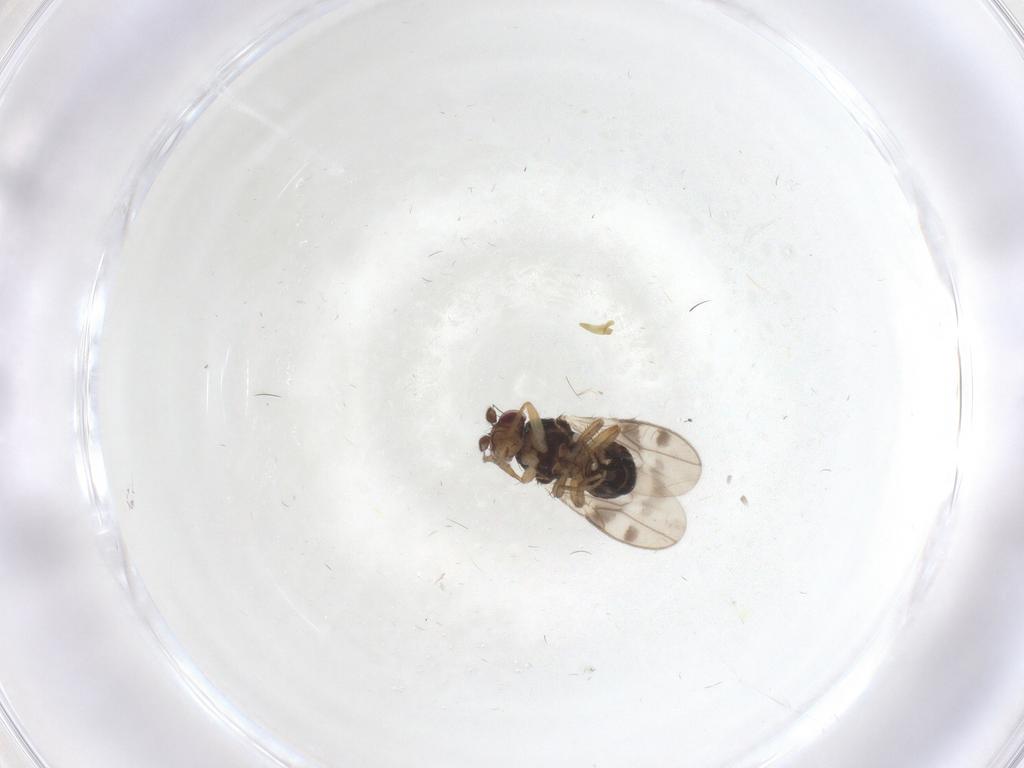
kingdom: Animalia
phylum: Arthropoda
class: Insecta
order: Diptera
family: Sphaeroceridae
